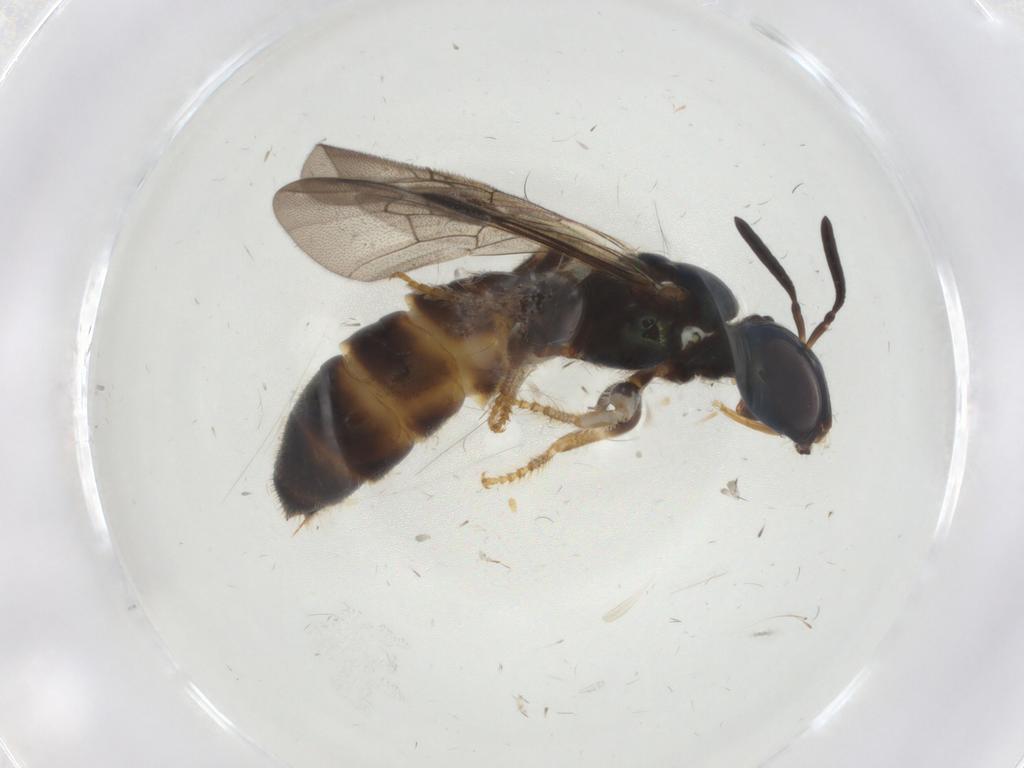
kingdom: Animalia
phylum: Arthropoda
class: Insecta
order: Hymenoptera
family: Apidae
